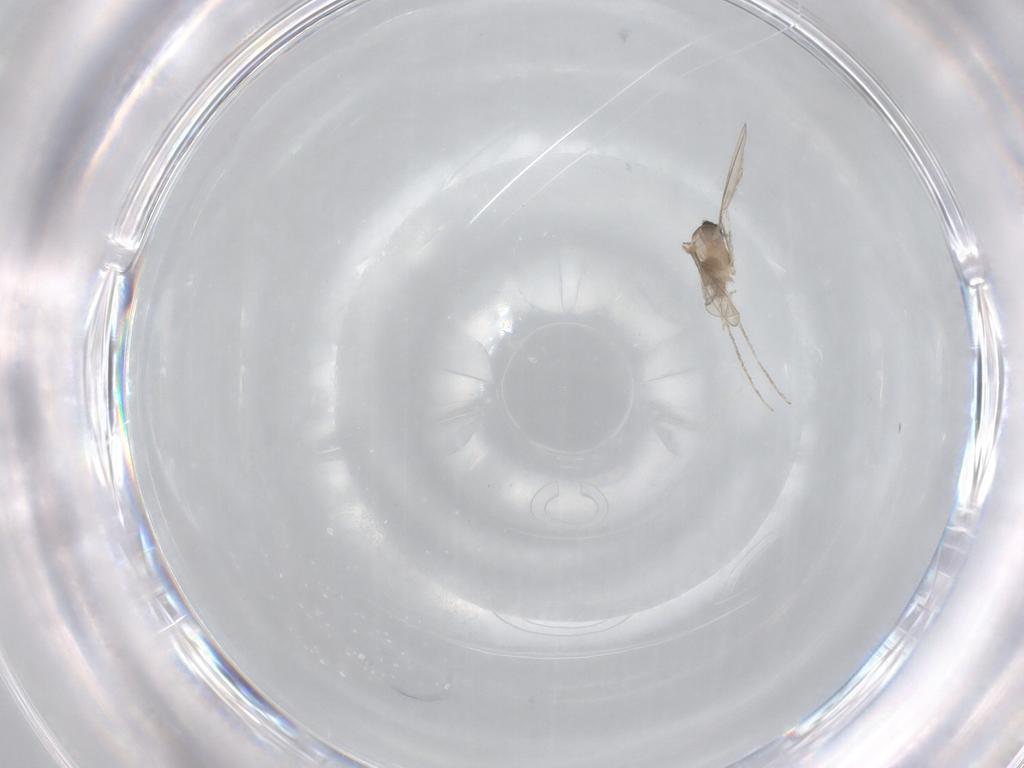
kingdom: Animalia
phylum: Arthropoda
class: Insecta
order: Diptera
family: Cecidomyiidae
